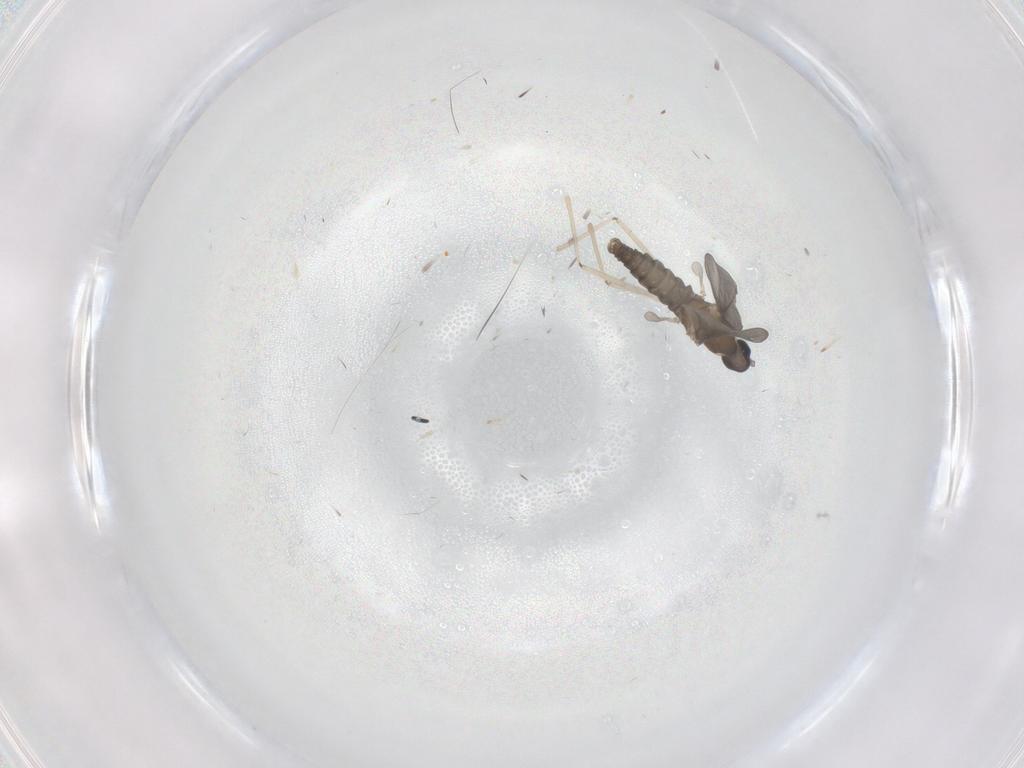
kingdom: Animalia
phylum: Arthropoda
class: Insecta
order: Diptera
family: Cecidomyiidae
